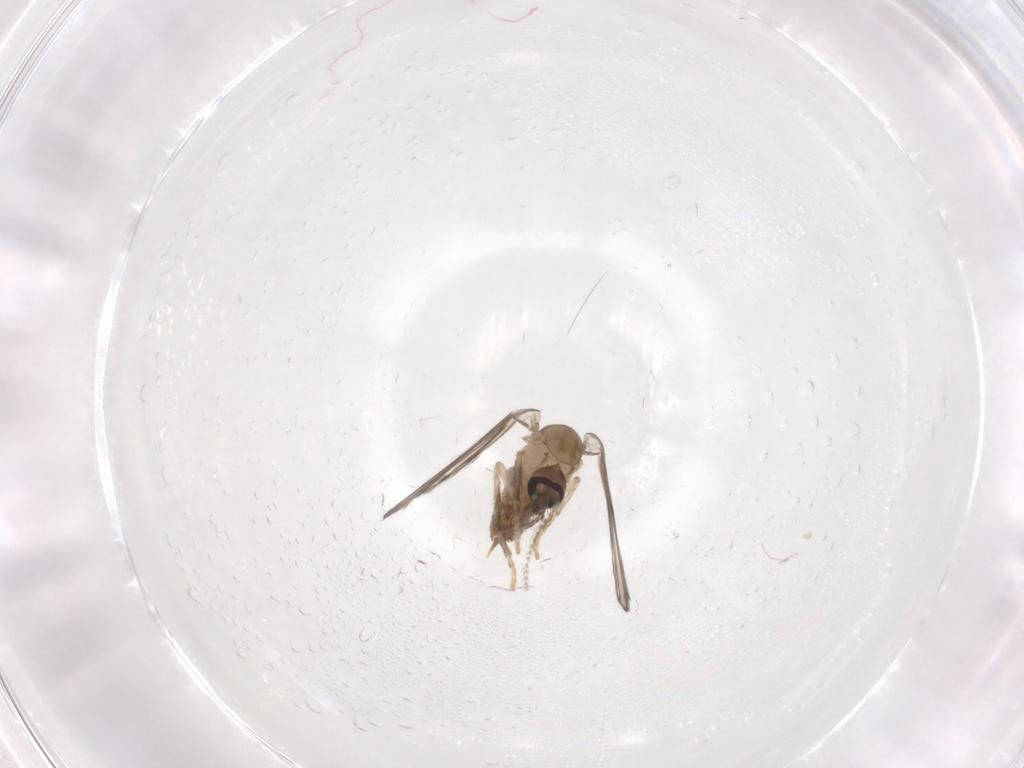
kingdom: Animalia
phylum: Arthropoda
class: Insecta
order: Diptera
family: Psychodidae
